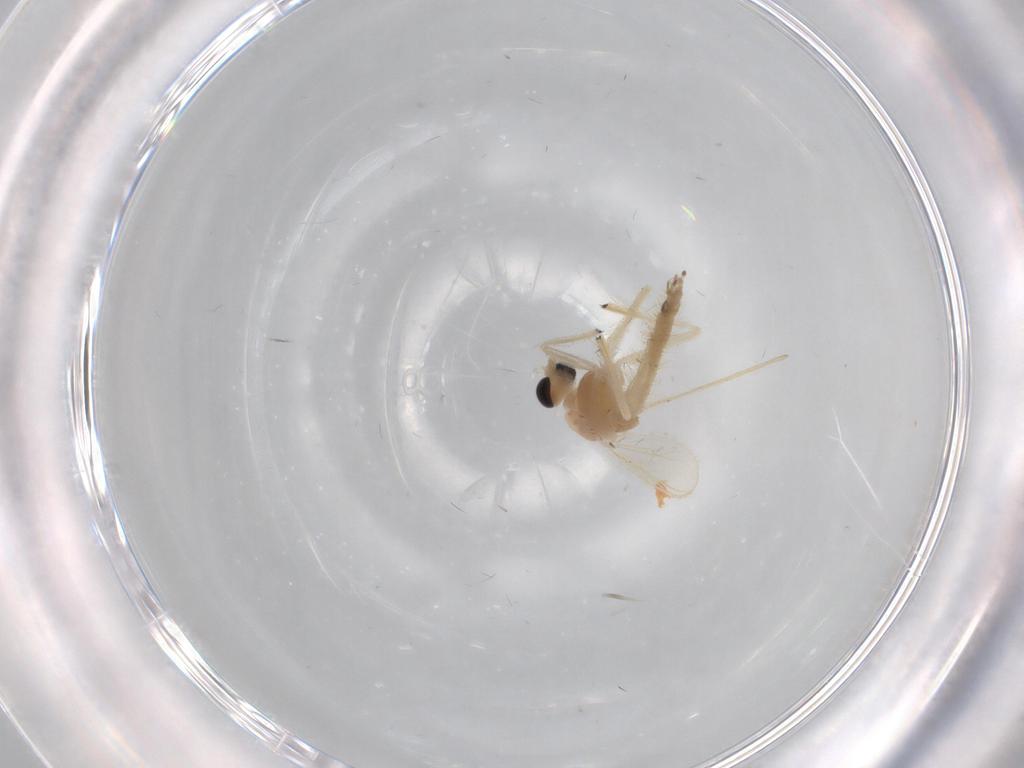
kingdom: Animalia
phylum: Arthropoda
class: Insecta
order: Diptera
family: Chironomidae
